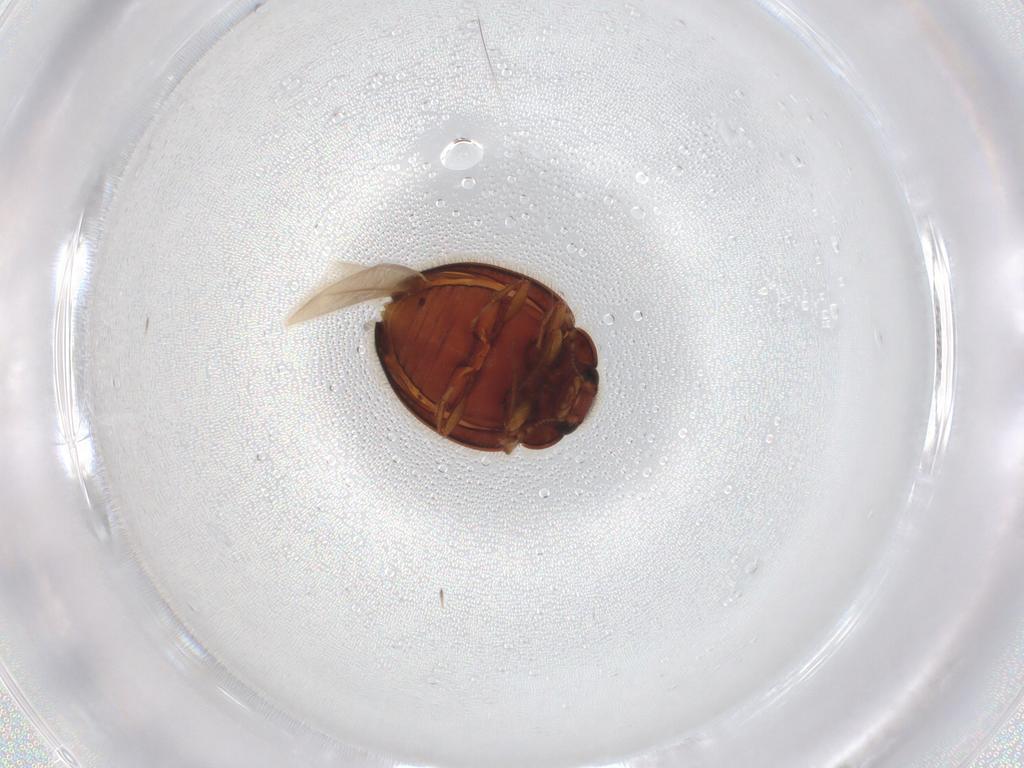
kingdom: Animalia
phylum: Arthropoda
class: Insecta
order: Coleoptera
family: Anamorphidae
